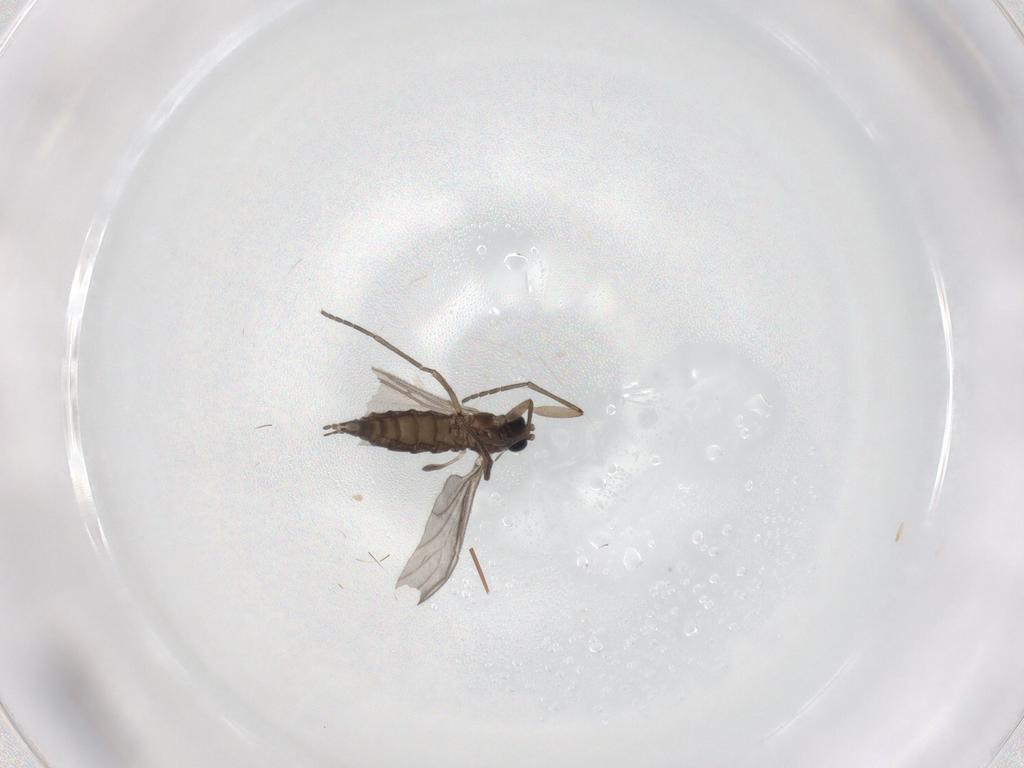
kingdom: Animalia
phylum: Arthropoda
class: Insecta
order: Diptera
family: Sciaridae
